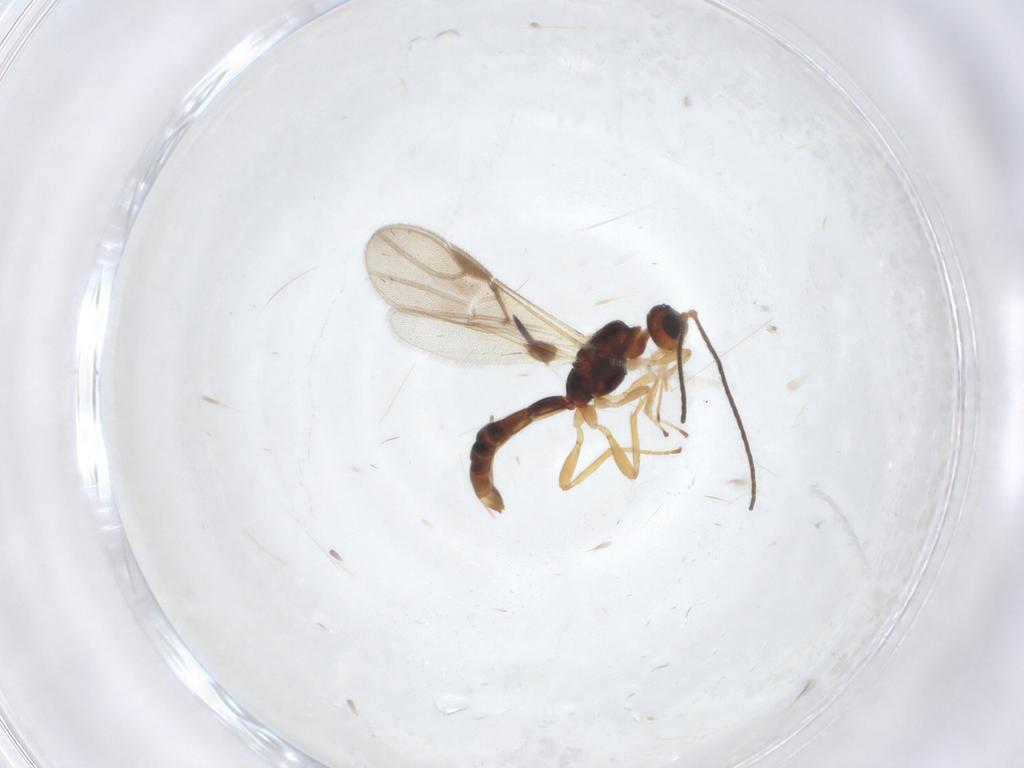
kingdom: Animalia
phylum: Arthropoda
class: Insecta
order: Hymenoptera
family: Braconidae
